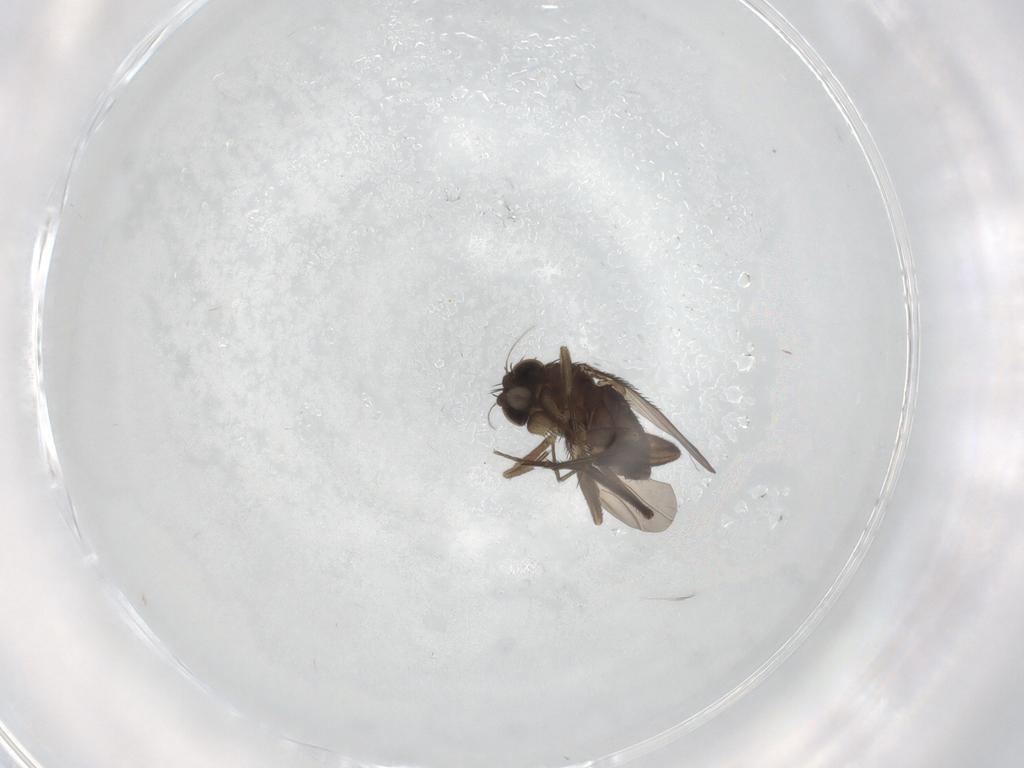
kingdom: Animalia
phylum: Arthropoda
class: Insecta
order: Diptera
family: Phoridae
